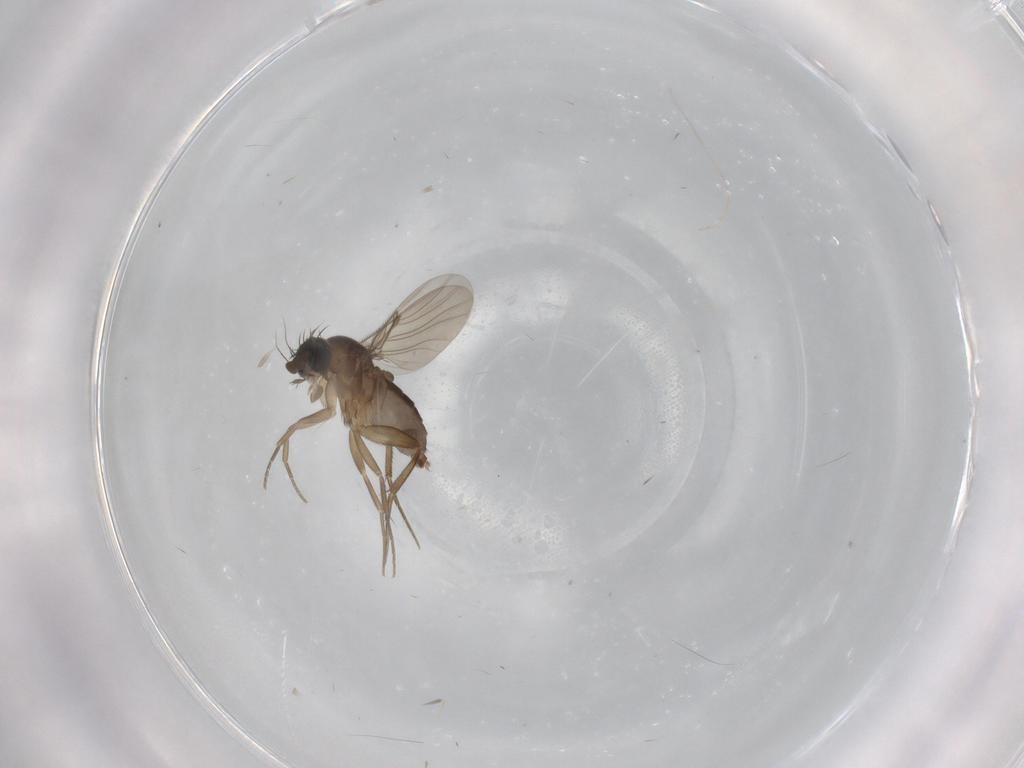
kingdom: Animalia
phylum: Arthropoda
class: Insecta
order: Diptera
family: Phoridae
